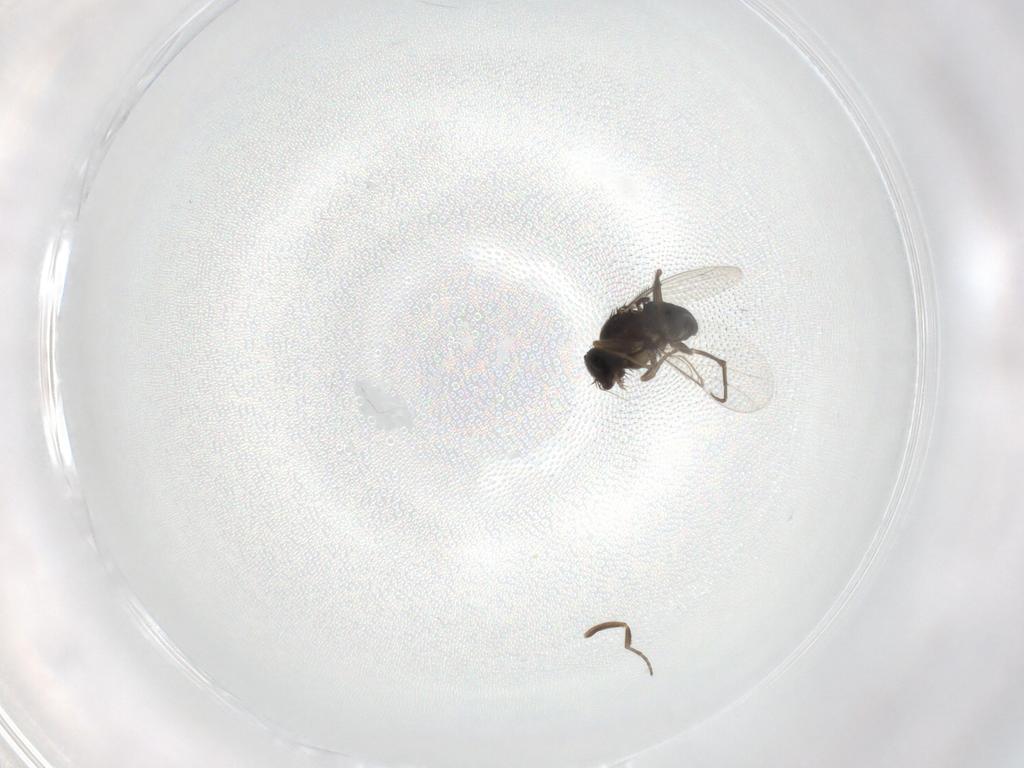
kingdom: Animalia
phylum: Arthropoda
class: Insecta
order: Diptera
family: Phoridae
